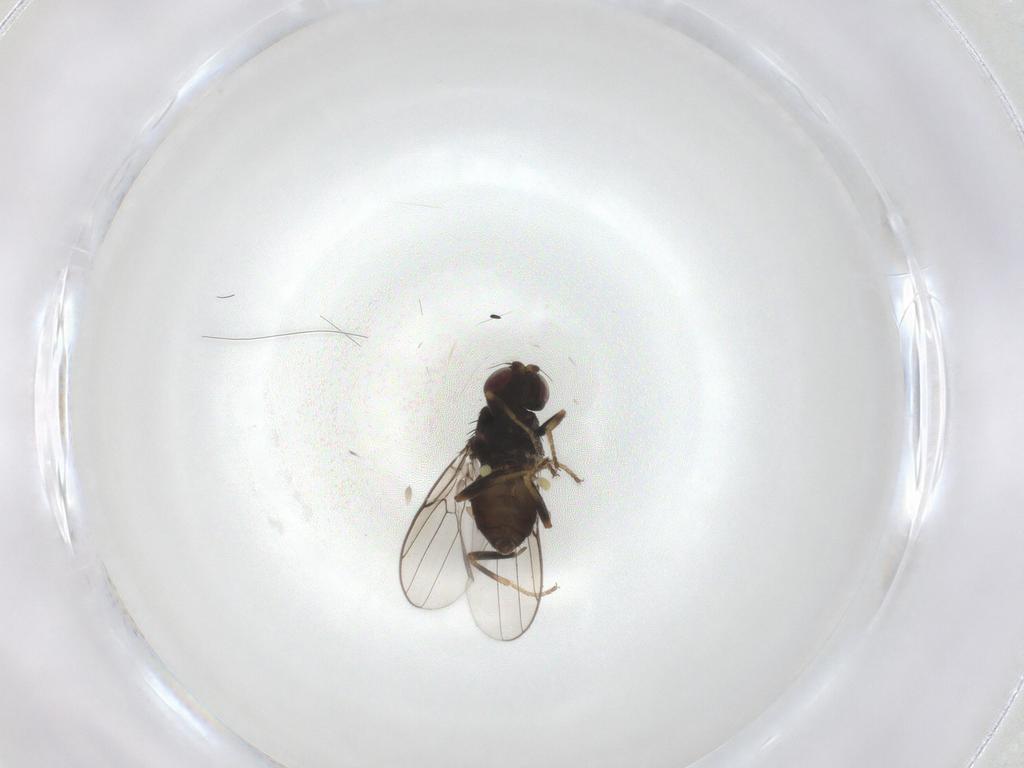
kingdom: Animalia
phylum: Arthropoda
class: Insecta
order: Diptera
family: Chloropidae
